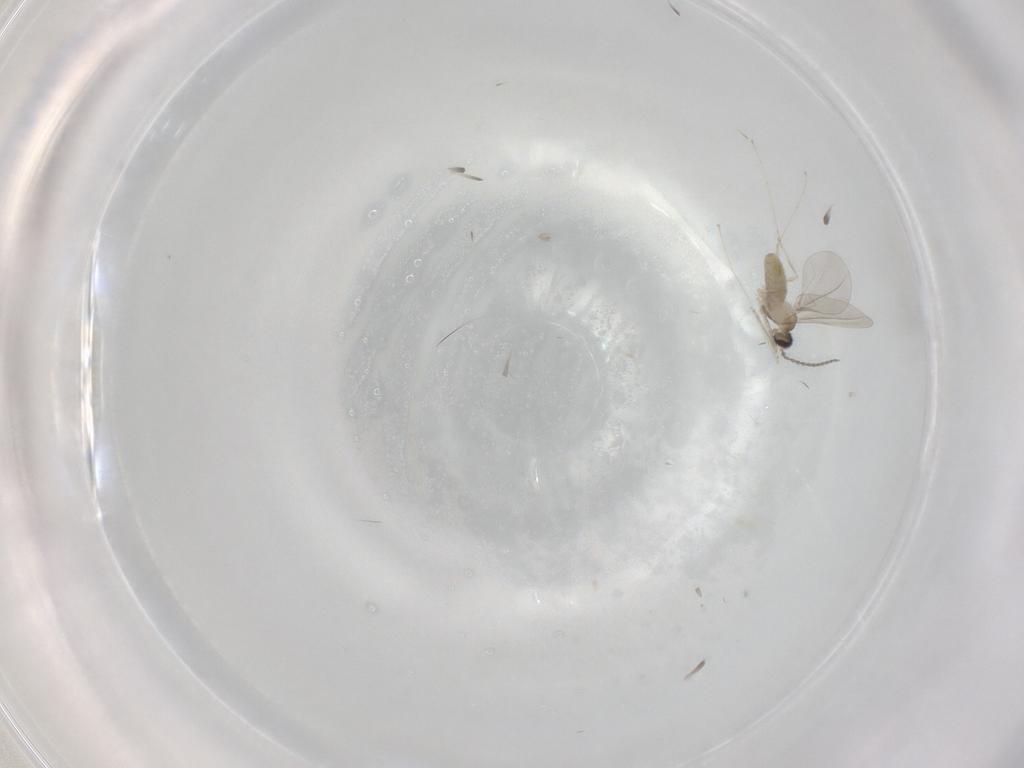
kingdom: Animalia
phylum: Arthropoda
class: Insecta
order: Diptera
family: Cecidomyiidae
